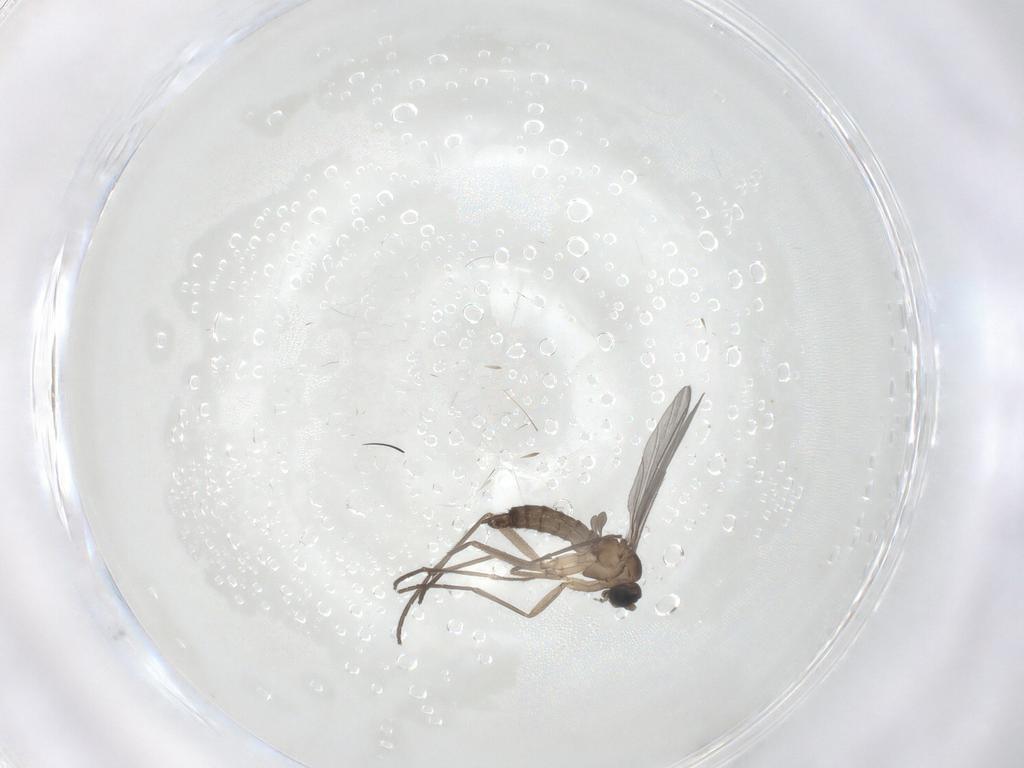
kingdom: Animalia
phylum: Arthropoda
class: Insecta
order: Diptera
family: Sciaridae
